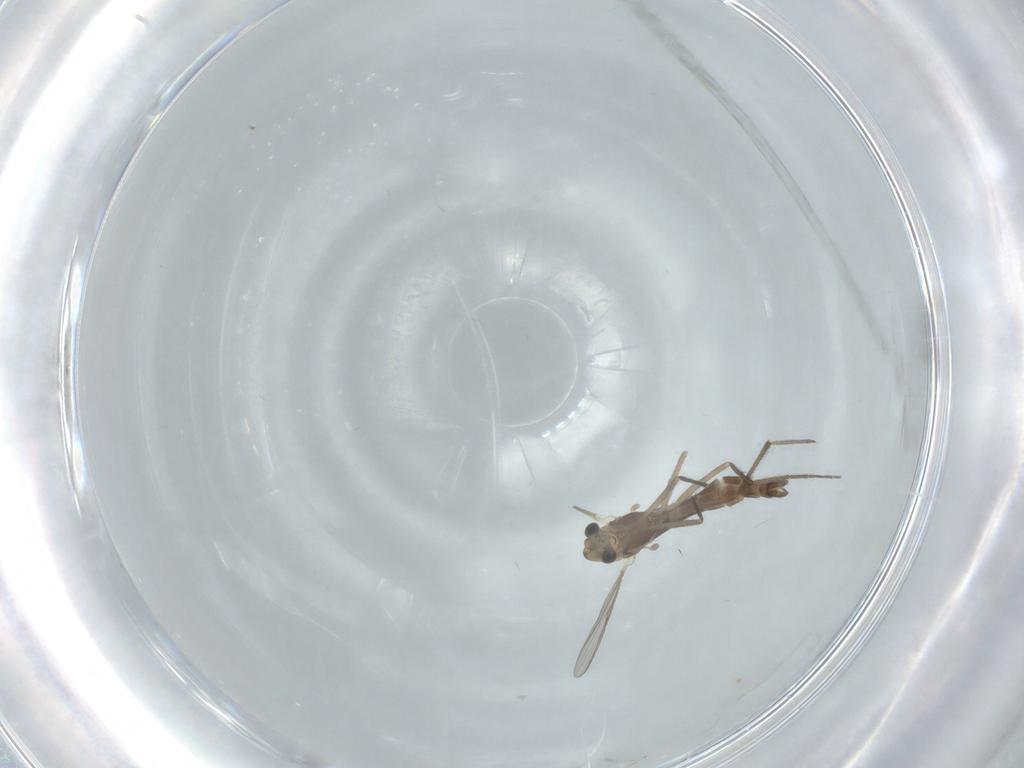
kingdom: Animalia
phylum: Arthropoda
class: Insecta
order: Diptera
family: Chironomidae
